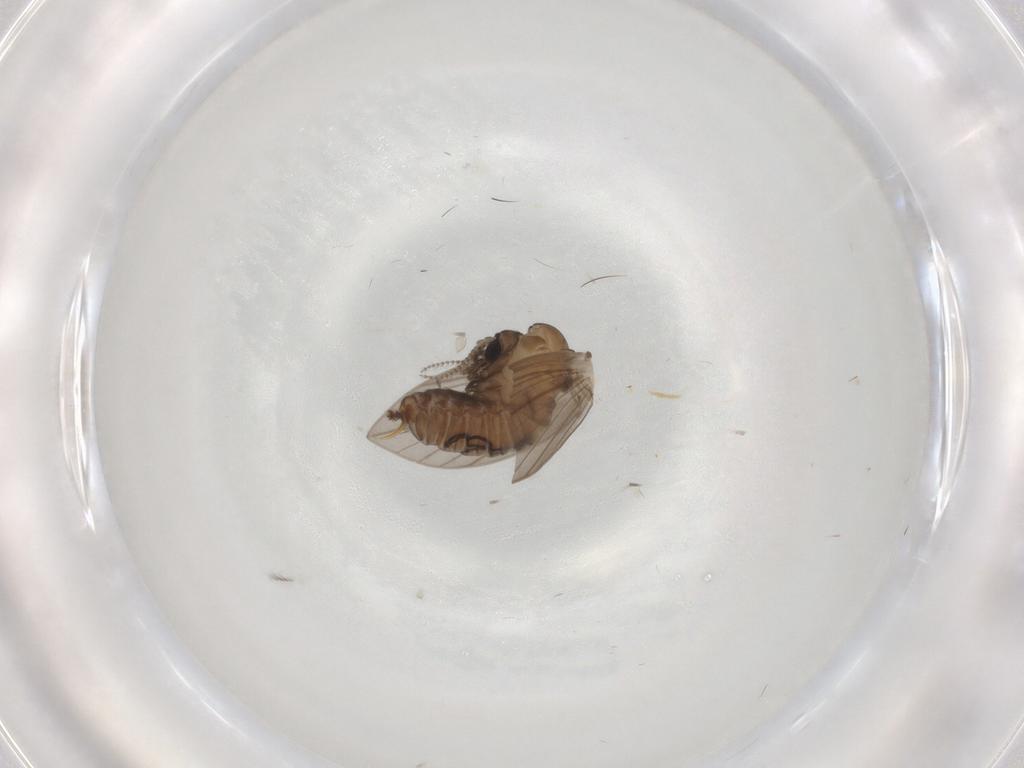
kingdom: Animalia
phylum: Arthropoda
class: Insecta
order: Diptera
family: Psychodidae
